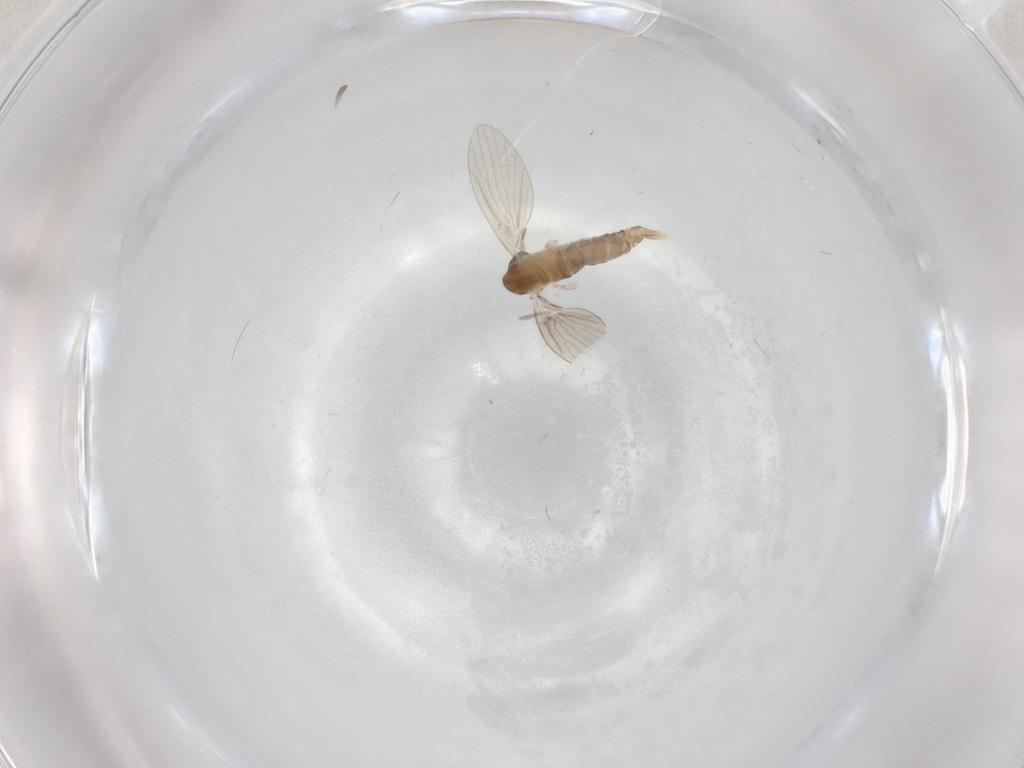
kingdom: Animalia
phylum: Arthropoda
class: Insecta
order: Diptera
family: Cecidomyiidae
